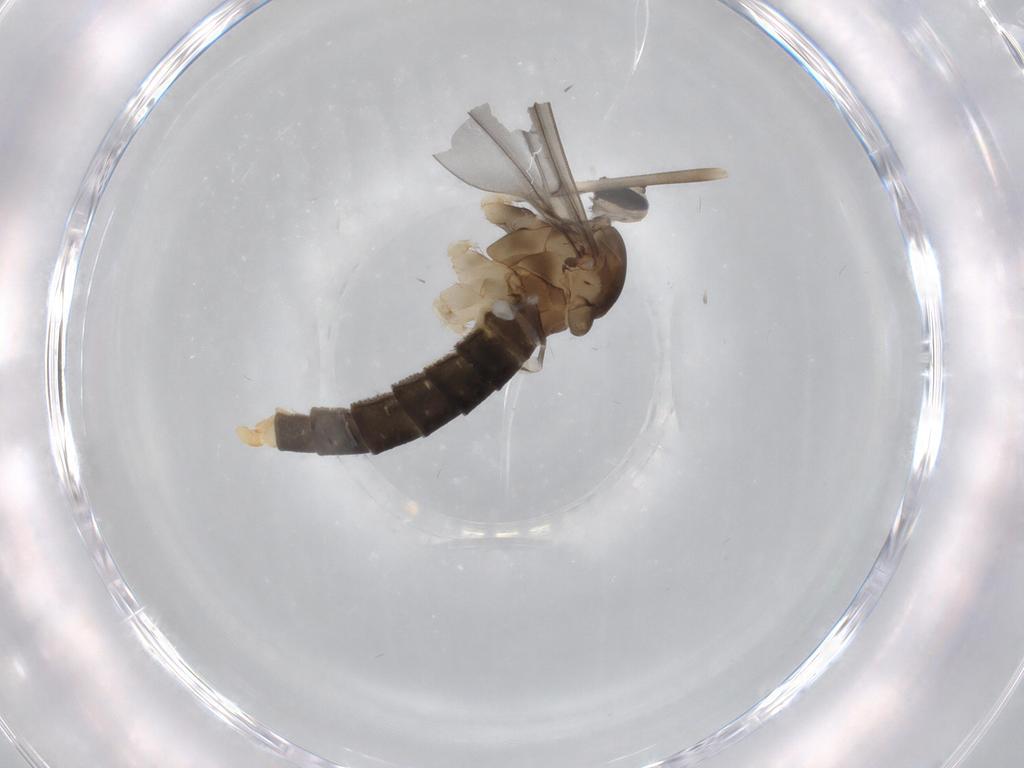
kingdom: Animalia
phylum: Arthropoda
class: Insecta
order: Diptera
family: Cecidomyiidae
